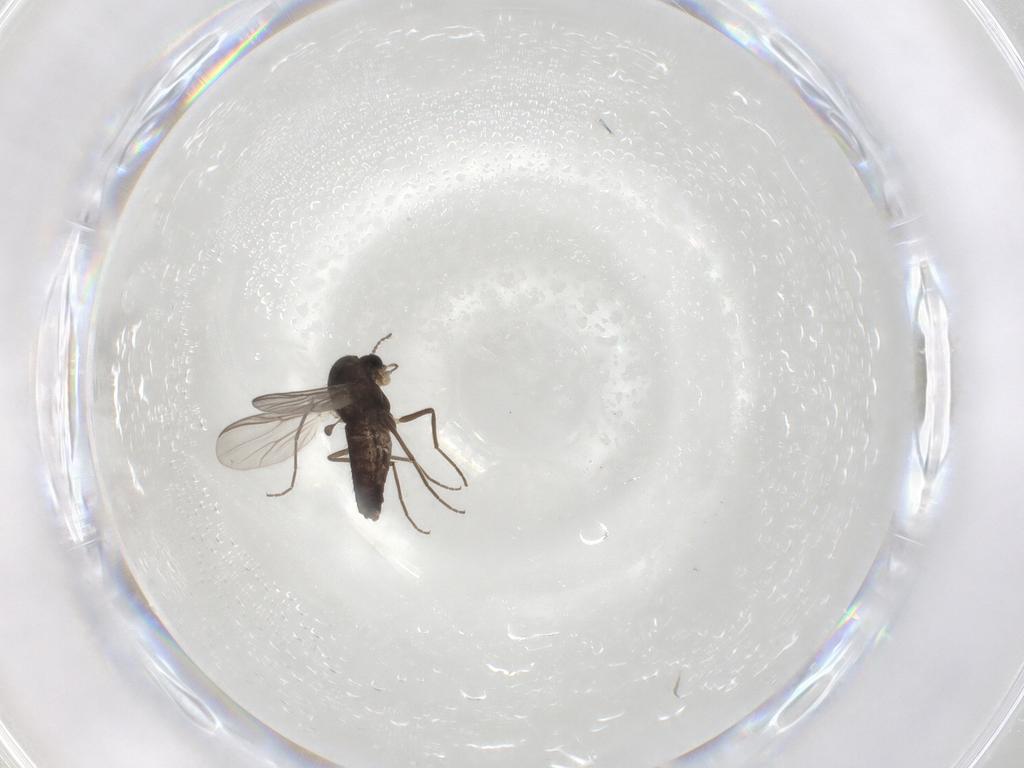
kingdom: Animalia
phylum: Arthropoda
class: Insecta
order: Diptera
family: Chironomidae
